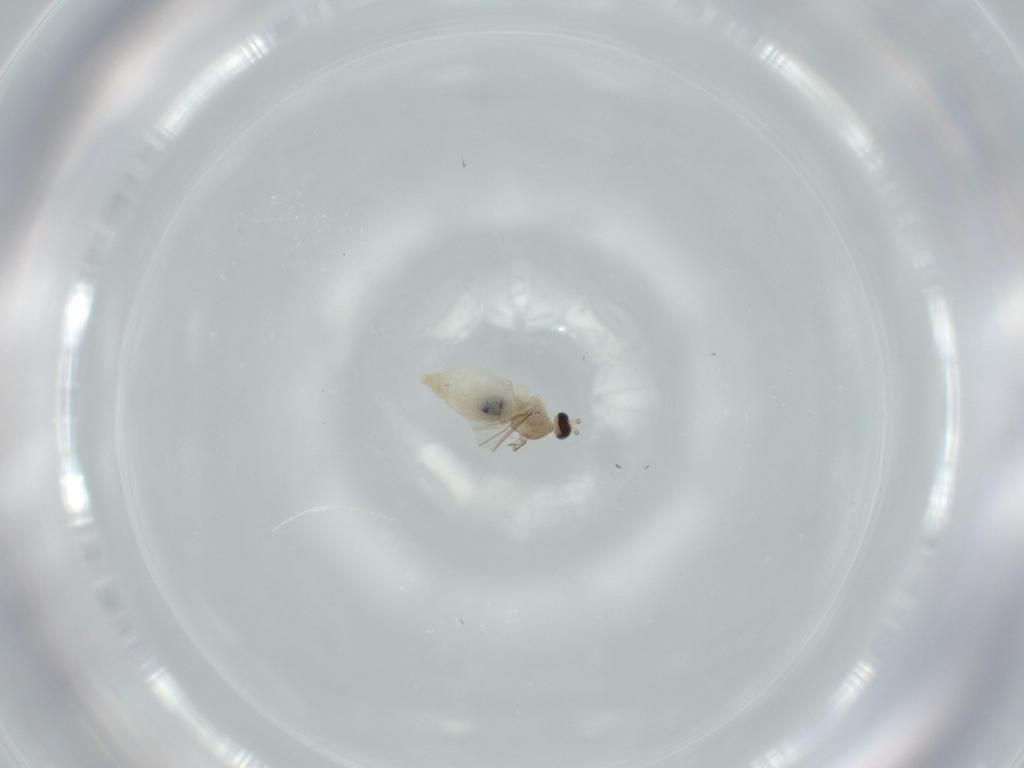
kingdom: Animalia
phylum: Arthropoda
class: Insecta
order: Diptera
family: Cecidomyiidae
